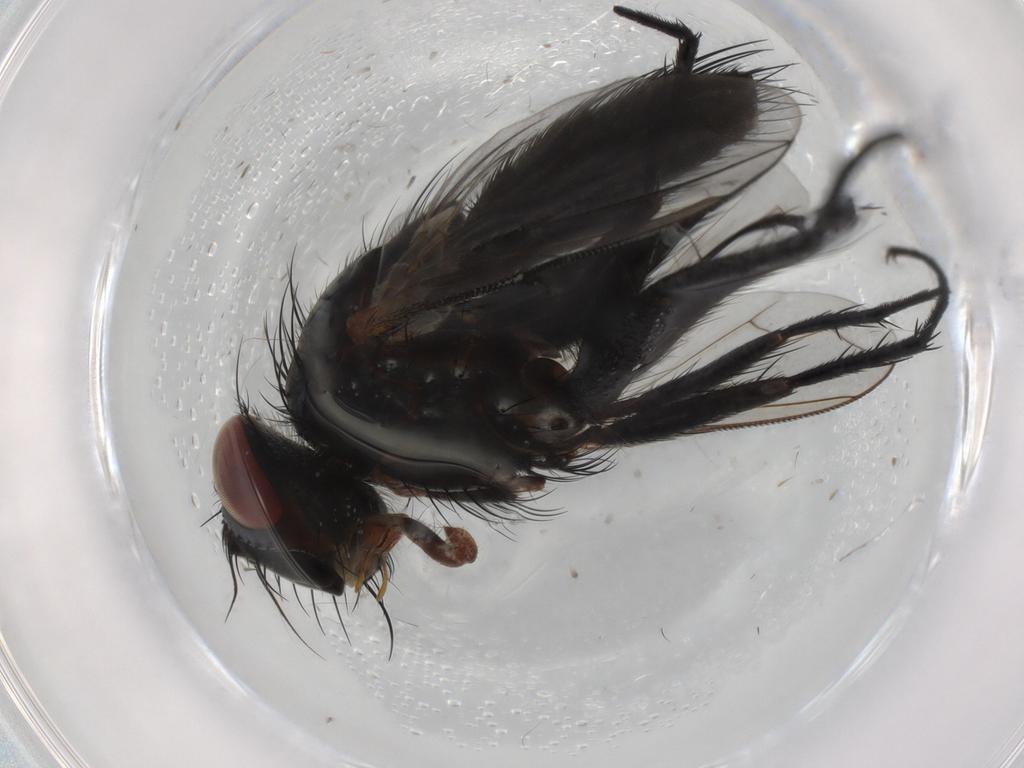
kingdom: Animalia
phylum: Arthropoda
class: Insecta
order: Diptera
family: Tachinidae
